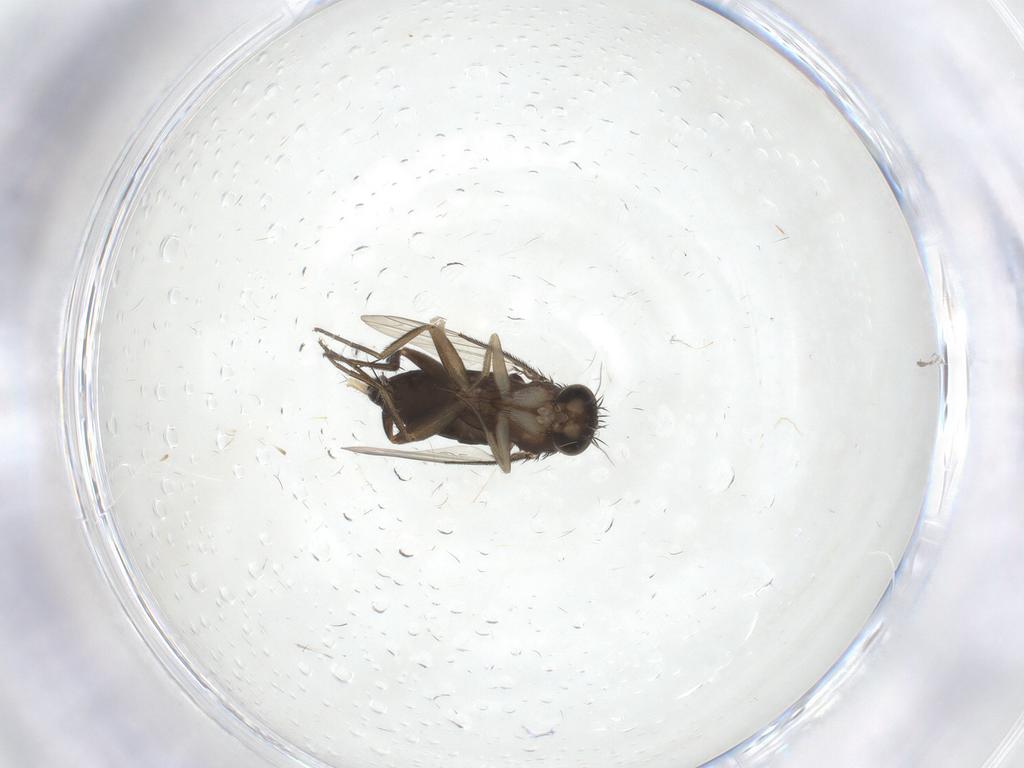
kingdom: Animalia
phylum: Arthropoda
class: Insecta
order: Diptera
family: Phoridae
